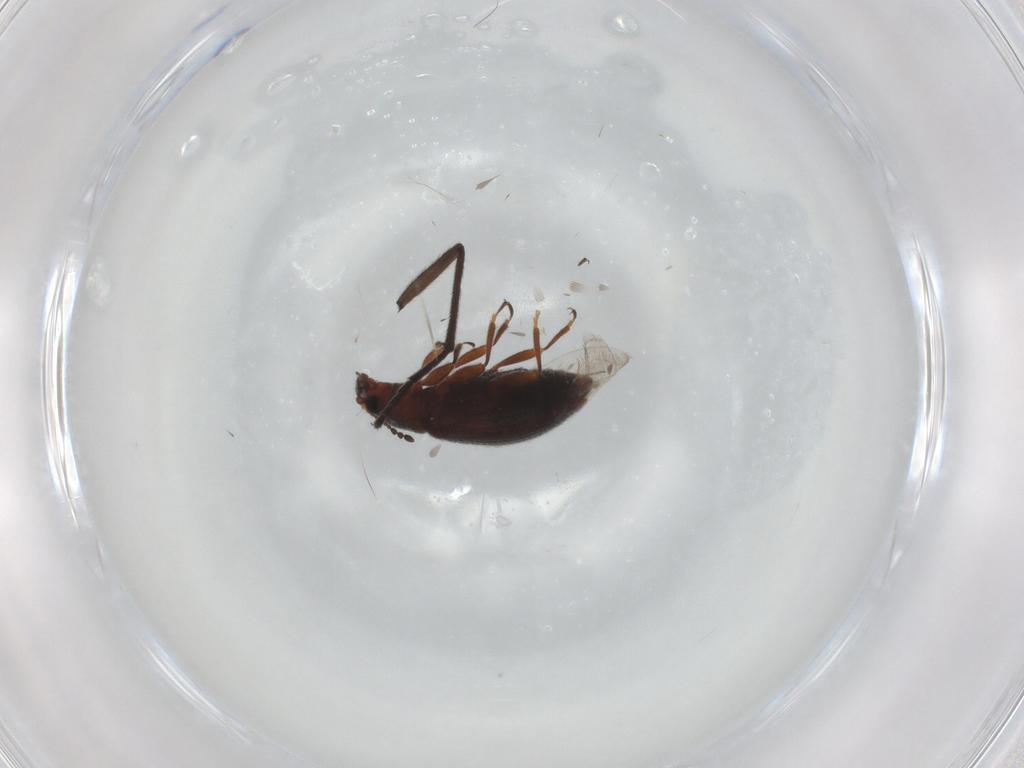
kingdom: Animalia
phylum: Arthropoda
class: Insecta
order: Coleoptera
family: Latridiidae
